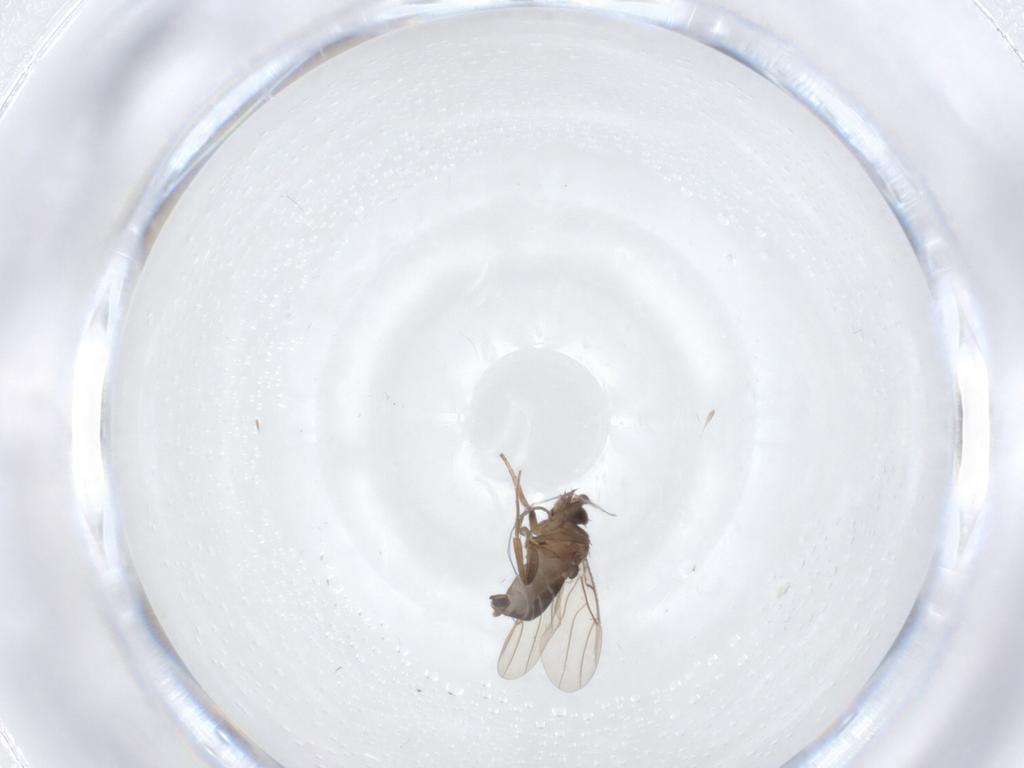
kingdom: Animalia
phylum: Arthropoda
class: Insecta
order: Diptera
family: Phoridae
